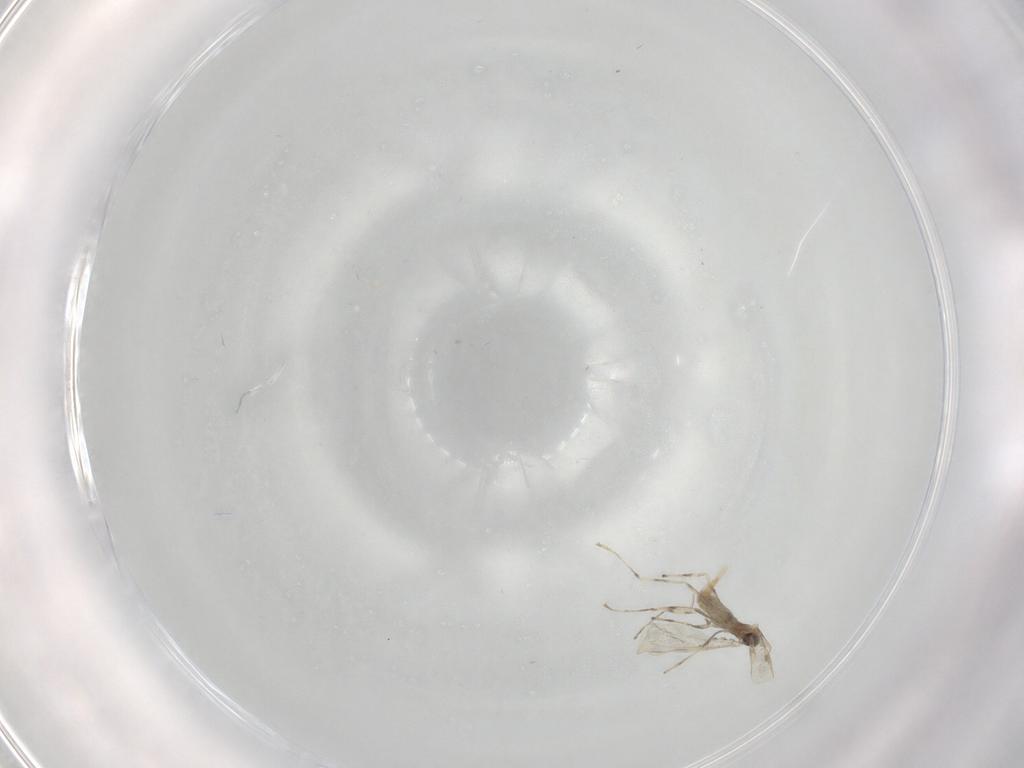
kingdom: Animalia
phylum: Arthropoda
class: Insecta
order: Diptera
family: Cecidomyiidae
